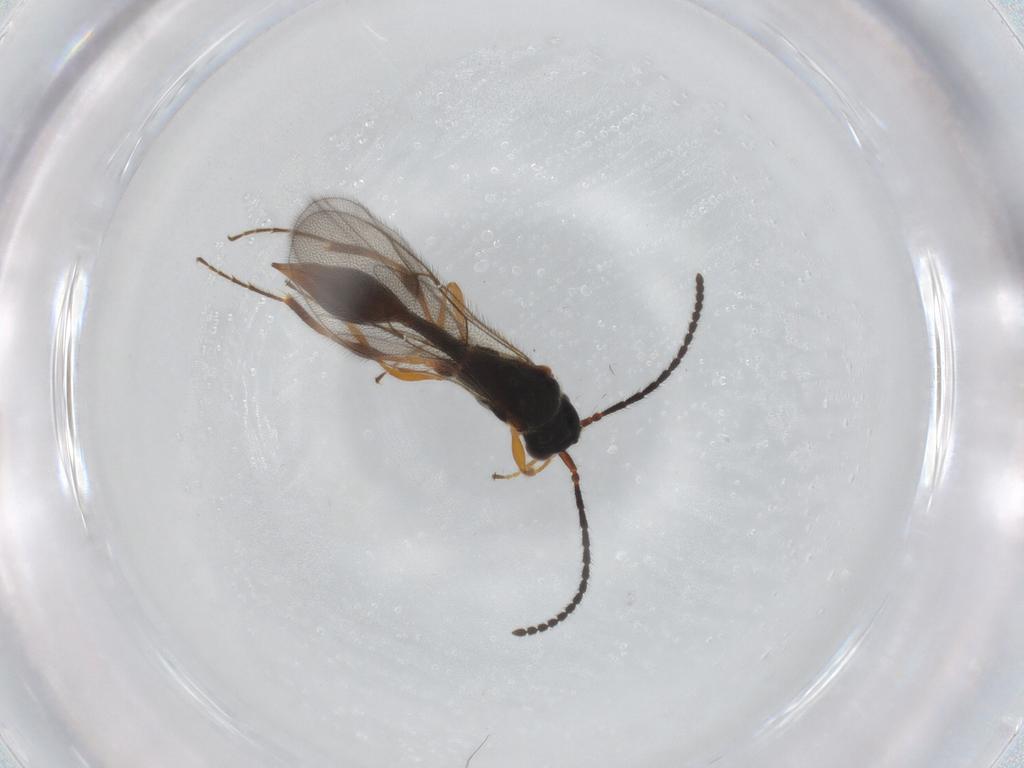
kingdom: Animalia
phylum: Arthropoda
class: Insecta
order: Hymenoptera
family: Diapriidae
